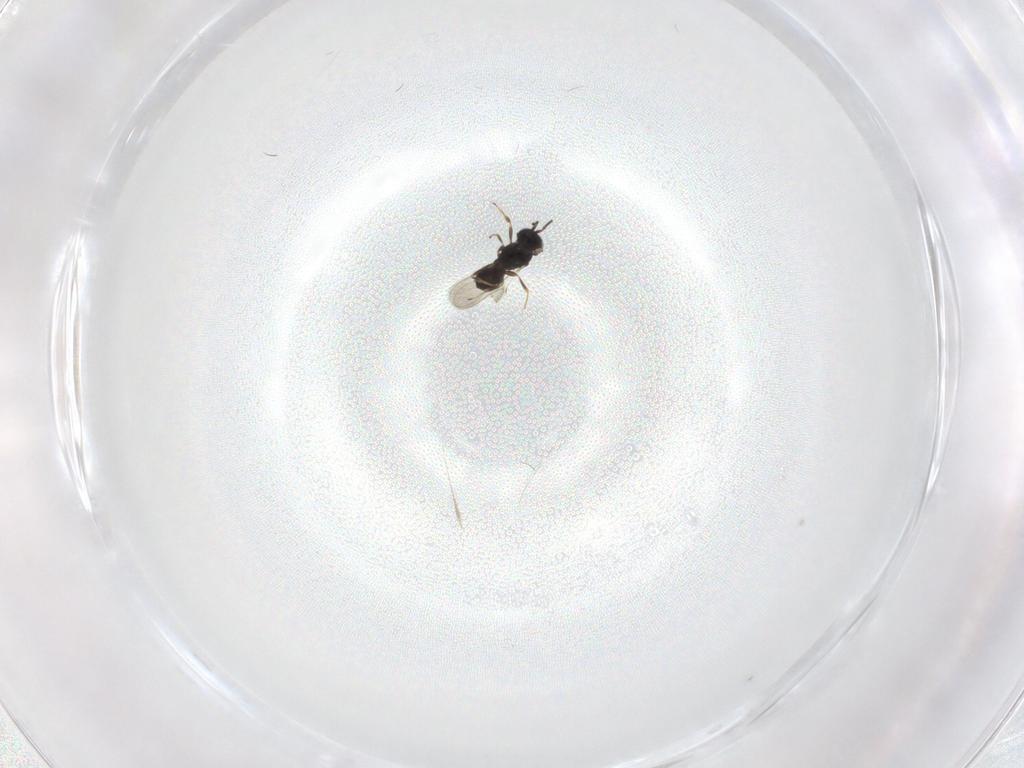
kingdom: Animalia
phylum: Arthropoda
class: Insecta
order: Hymenoptera
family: Scelionidae
